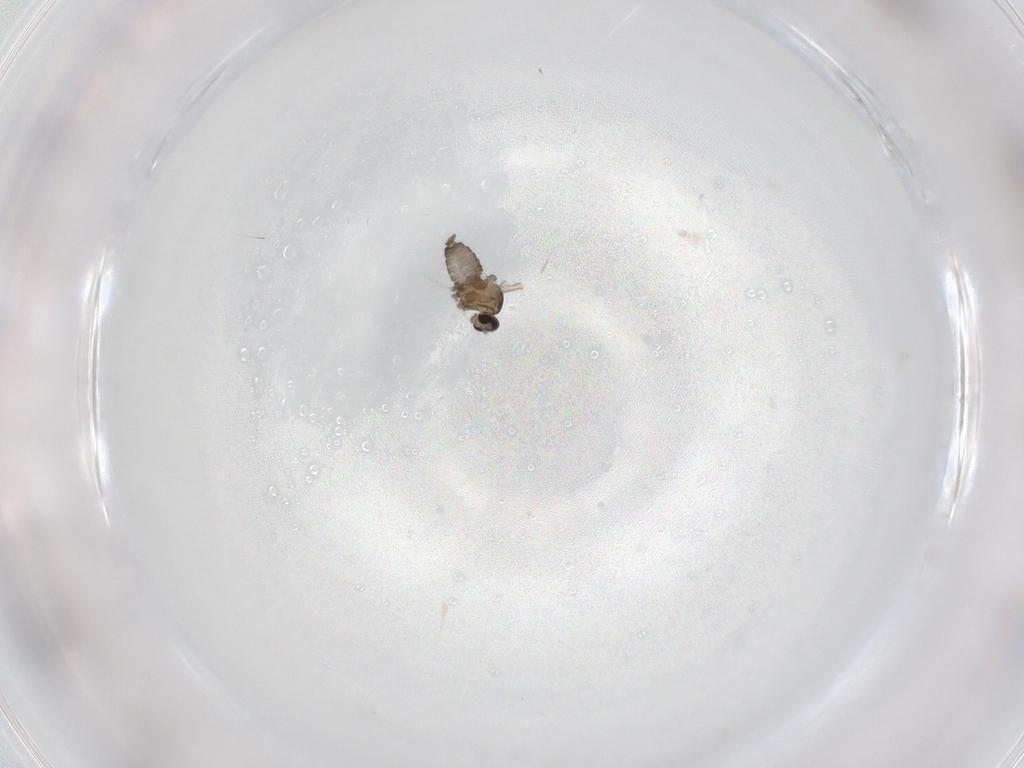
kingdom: Animalia
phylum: Arthropoda
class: Insecta
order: Diptera
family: Cecidomyiidae
